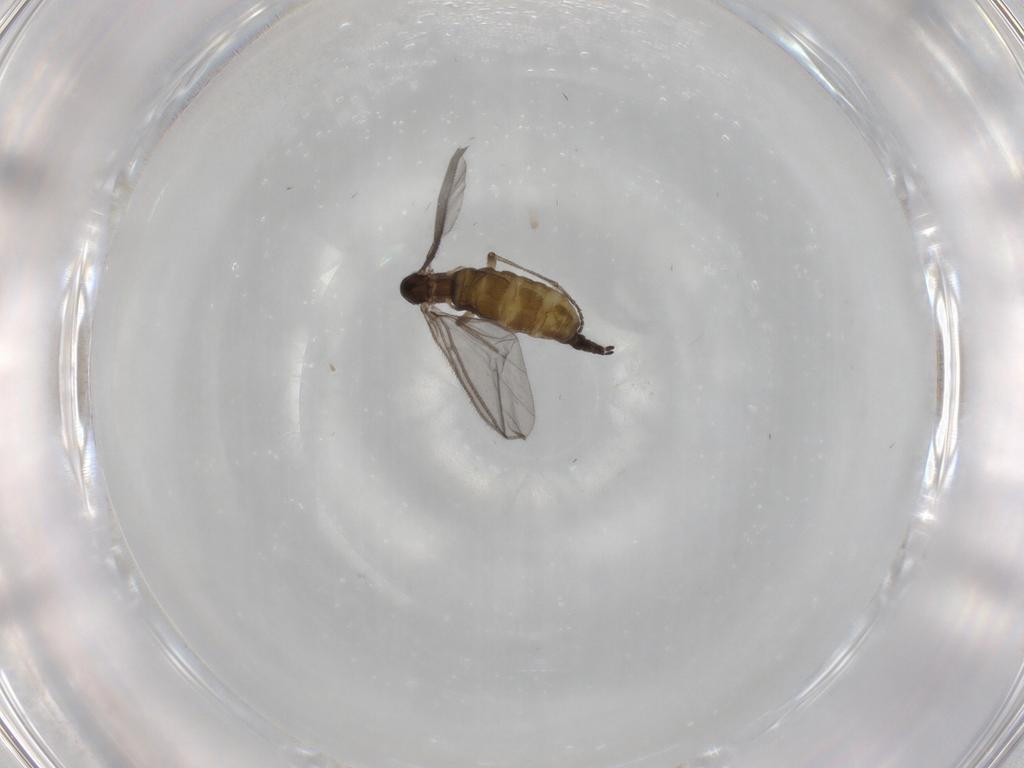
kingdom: Animalia
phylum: Arthropoda
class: Insecta
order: Diptera
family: Sciaridae
